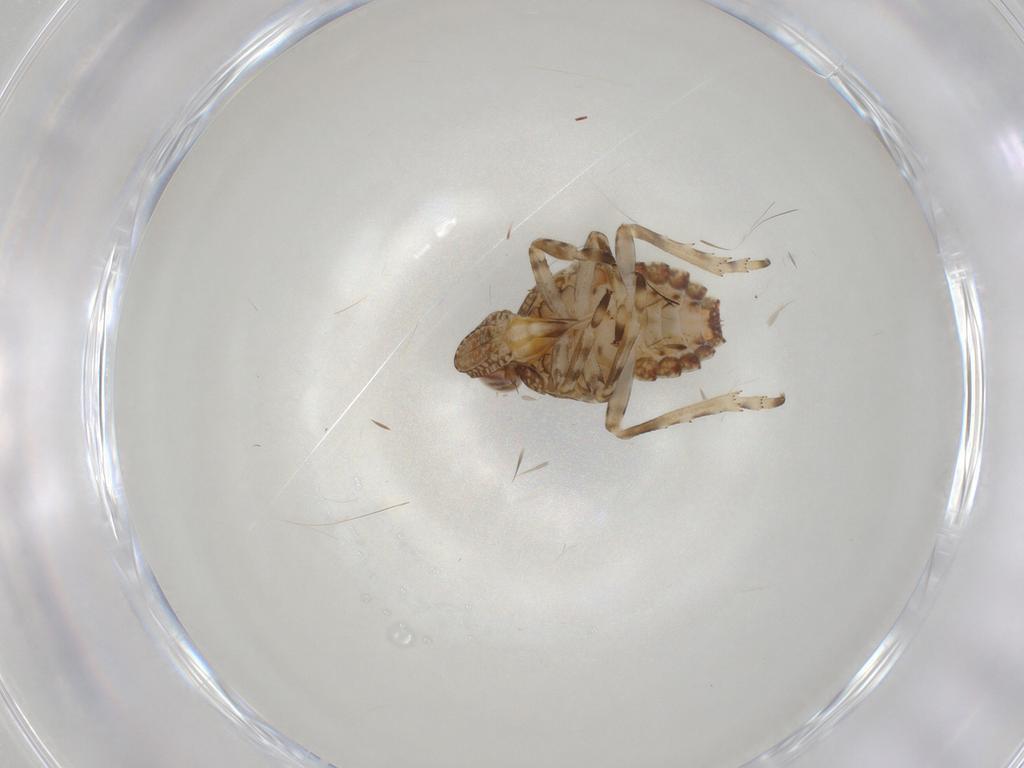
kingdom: Animalia
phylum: Arthropoda
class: Insecta
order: Hemiptera
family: Tropiduchidae
